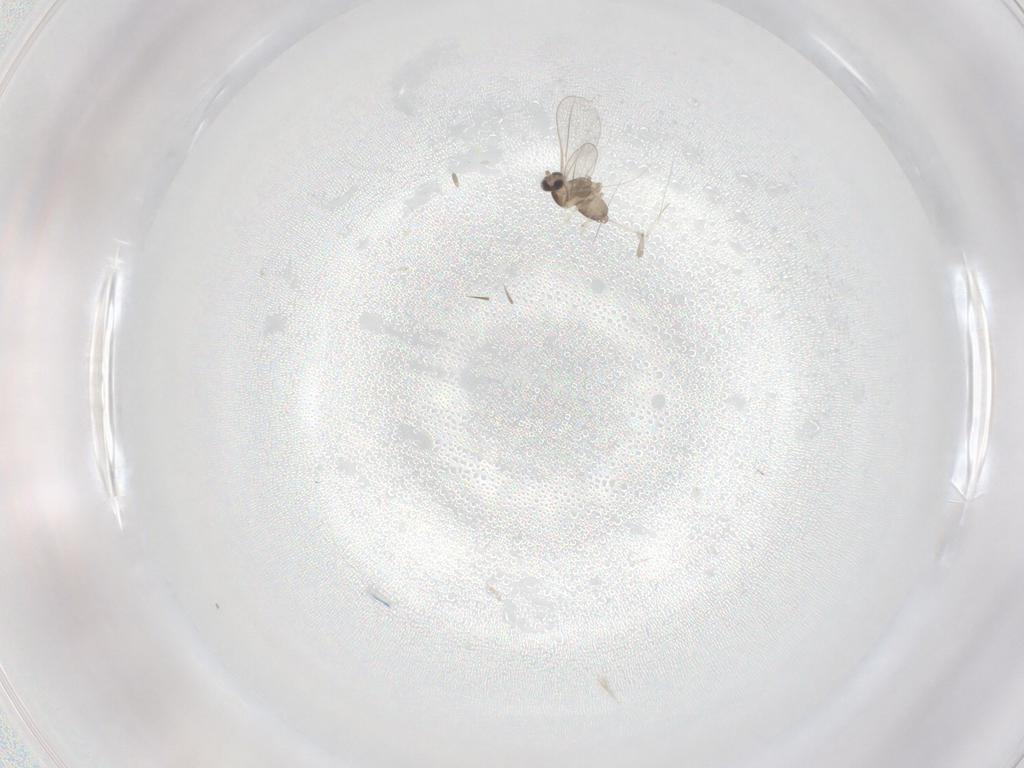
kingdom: Animalia
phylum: Arthropoda
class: Insecta
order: Diptera
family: Cecidomyiidae
